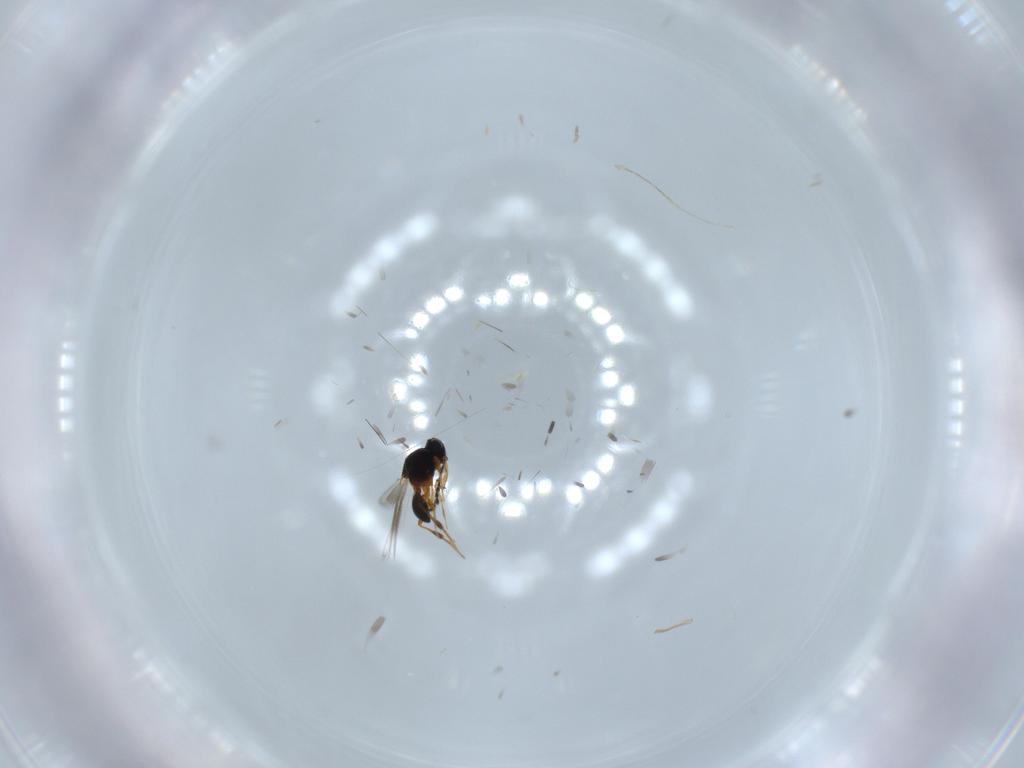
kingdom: Animalia
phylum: Arthropoda
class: Insecta
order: Hymenoptera
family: Platygastridae
